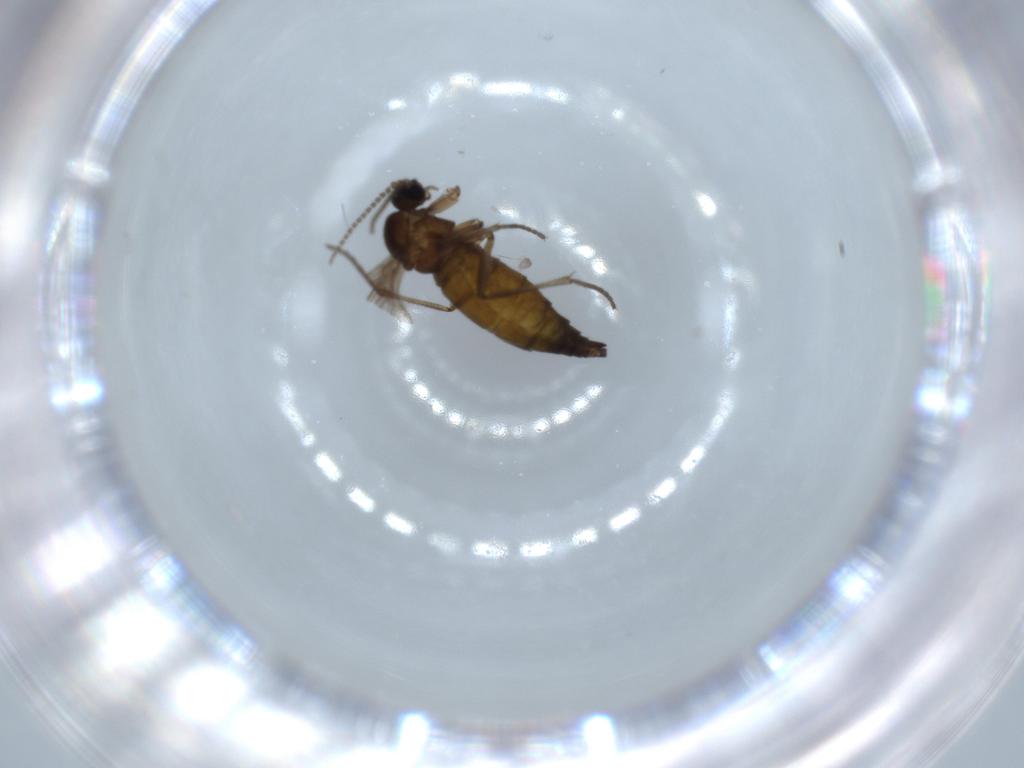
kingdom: Animalia
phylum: Arthropoda
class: Insecta
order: Diptera
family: Sciaridae
